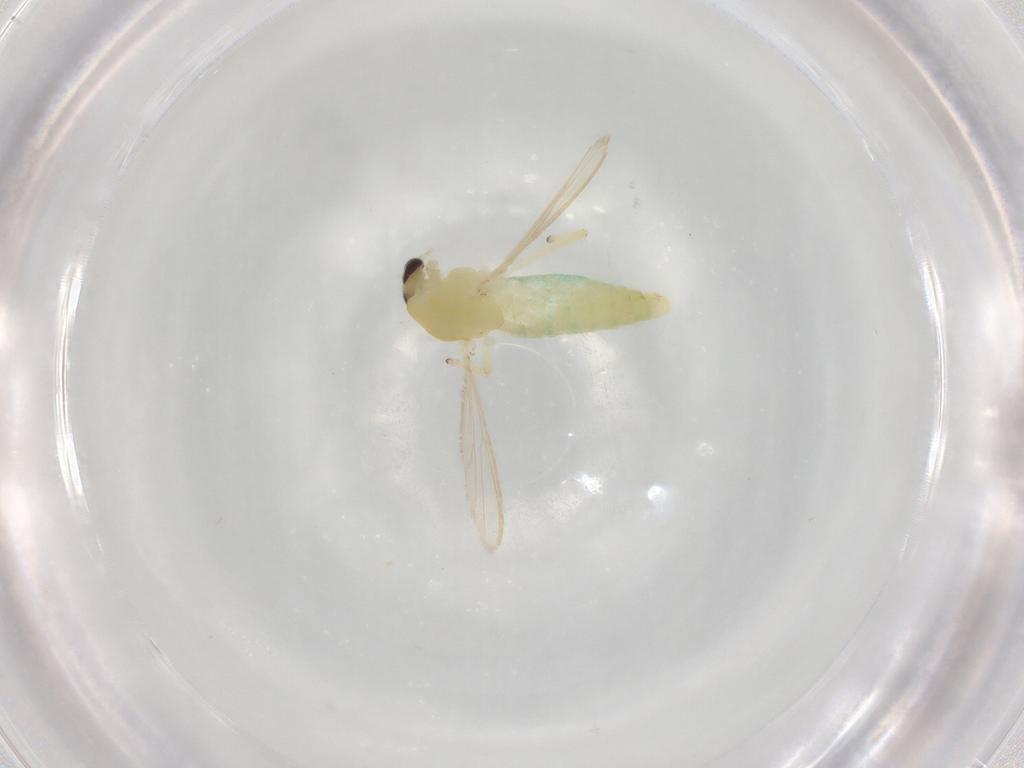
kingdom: Animalia
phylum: Arthropoda
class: Insecta
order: Diptera
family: Chironomidae
